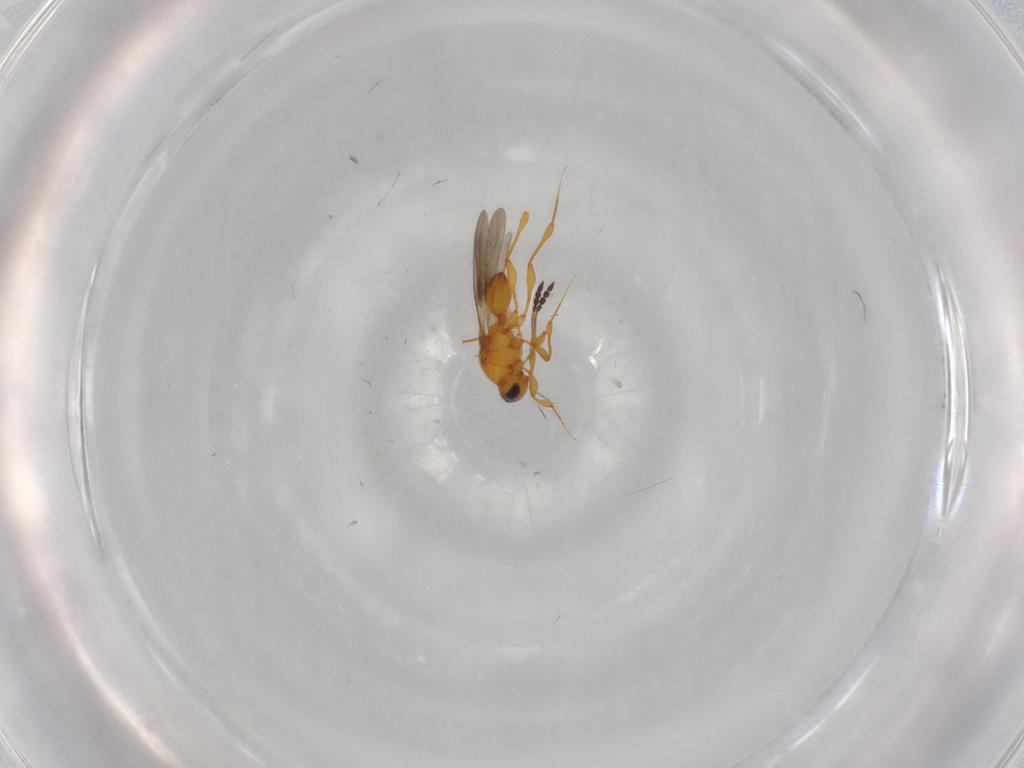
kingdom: Animalia
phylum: Arthropoda
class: Insecta
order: Hymenoptera
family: Platygastridae
